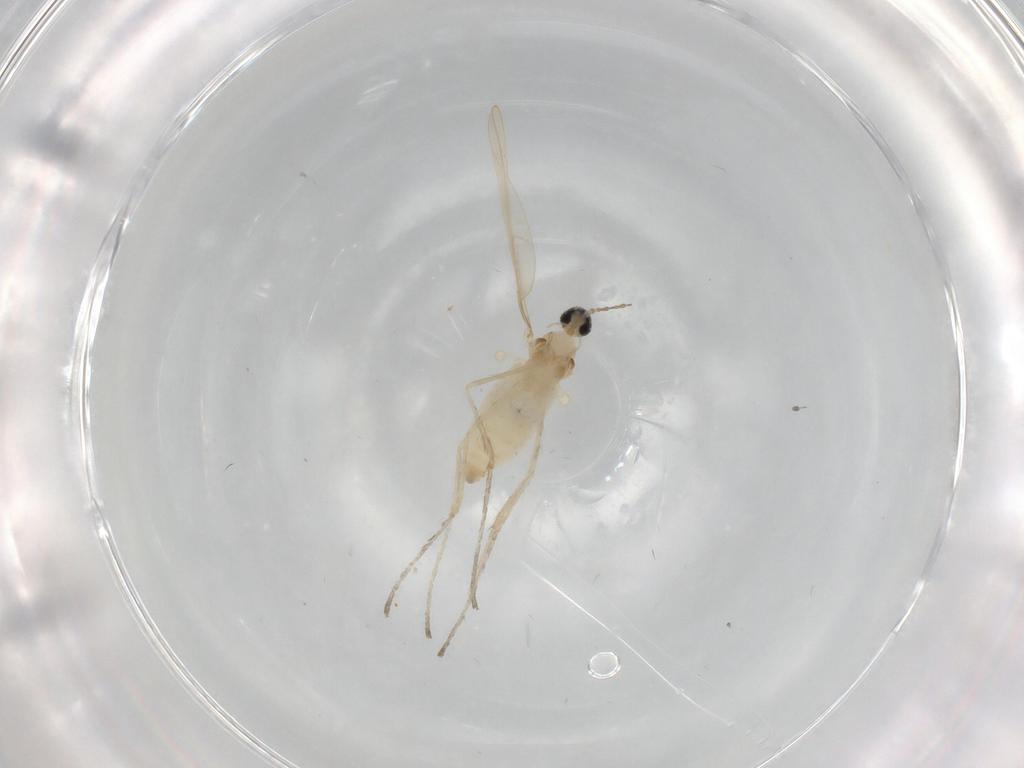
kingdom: Animalia
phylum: Arthropoda
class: Insecta
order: Diptera
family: Cecidomyiidae
